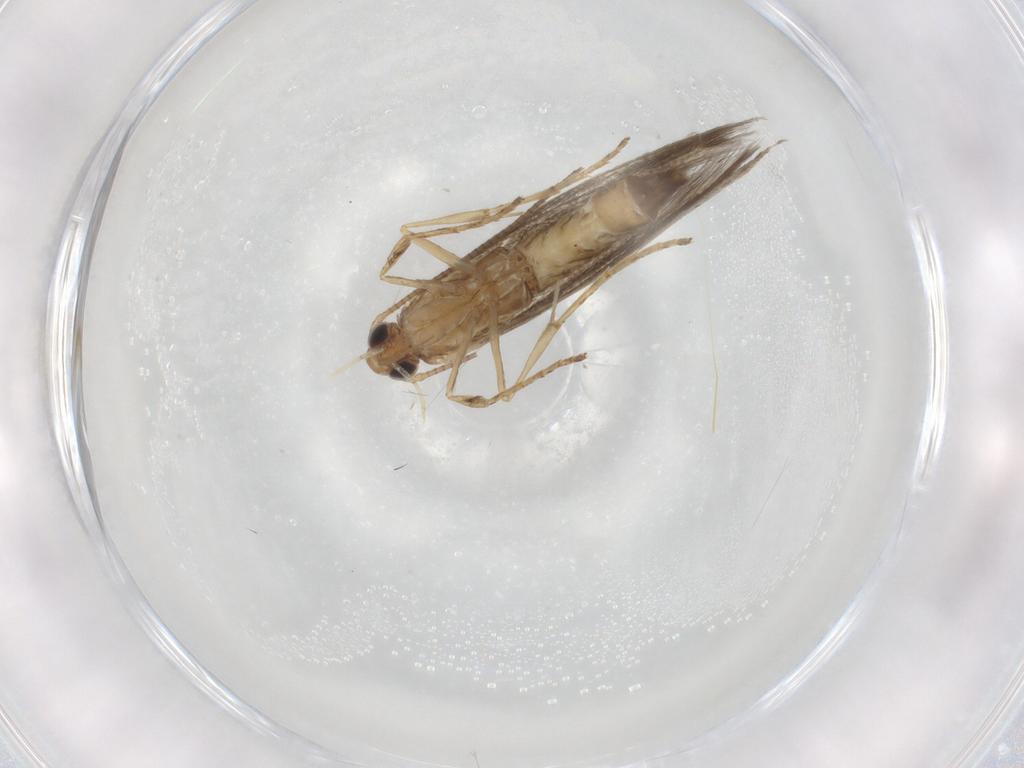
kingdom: Animalia
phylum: Arthropoda
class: Insecta
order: Lepidoptera
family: Gracillariidae
